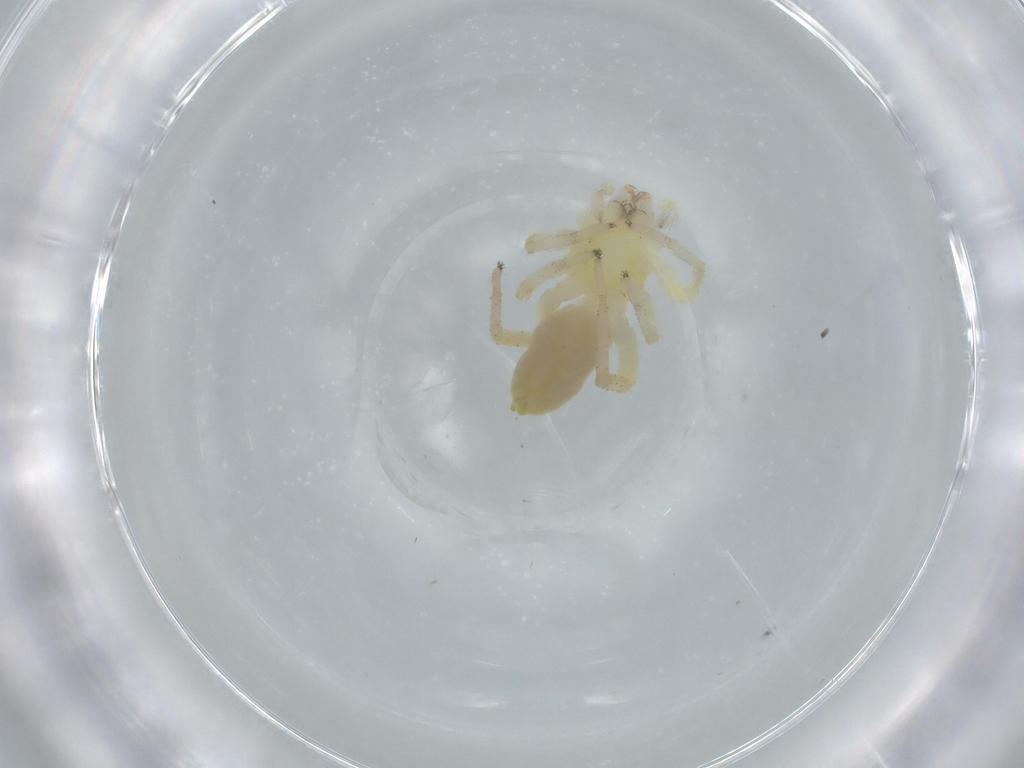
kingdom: Animalia
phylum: Arthropoda
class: Arachnida
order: Araneae
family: Anyphaenidae
